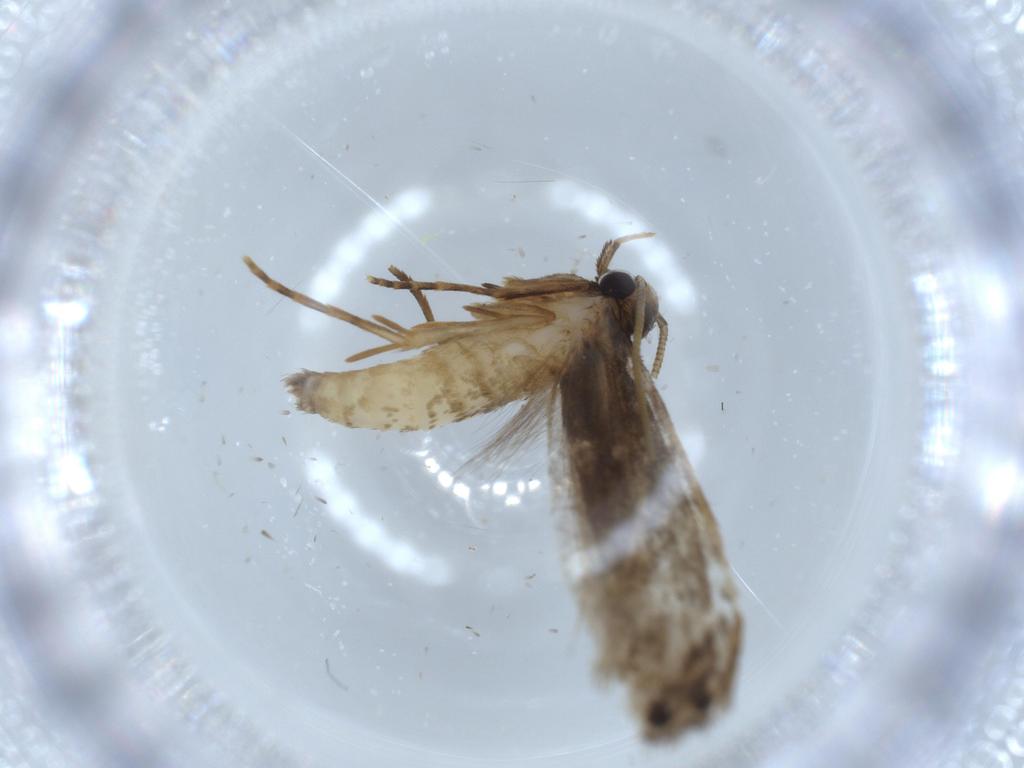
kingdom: Animalia
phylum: Arthropoda
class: Insecta
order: Lepidoptera
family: Tineidae
